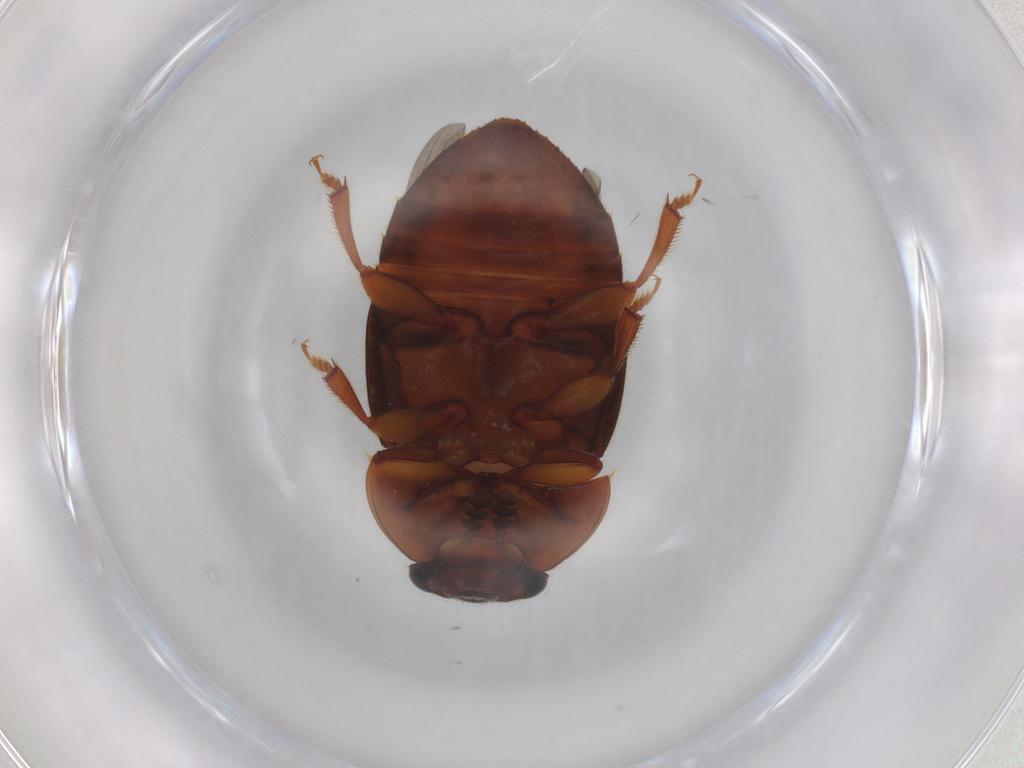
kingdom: Animalia
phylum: Arthropoda
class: Insecta
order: Coleoptera
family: Nitidulidae
